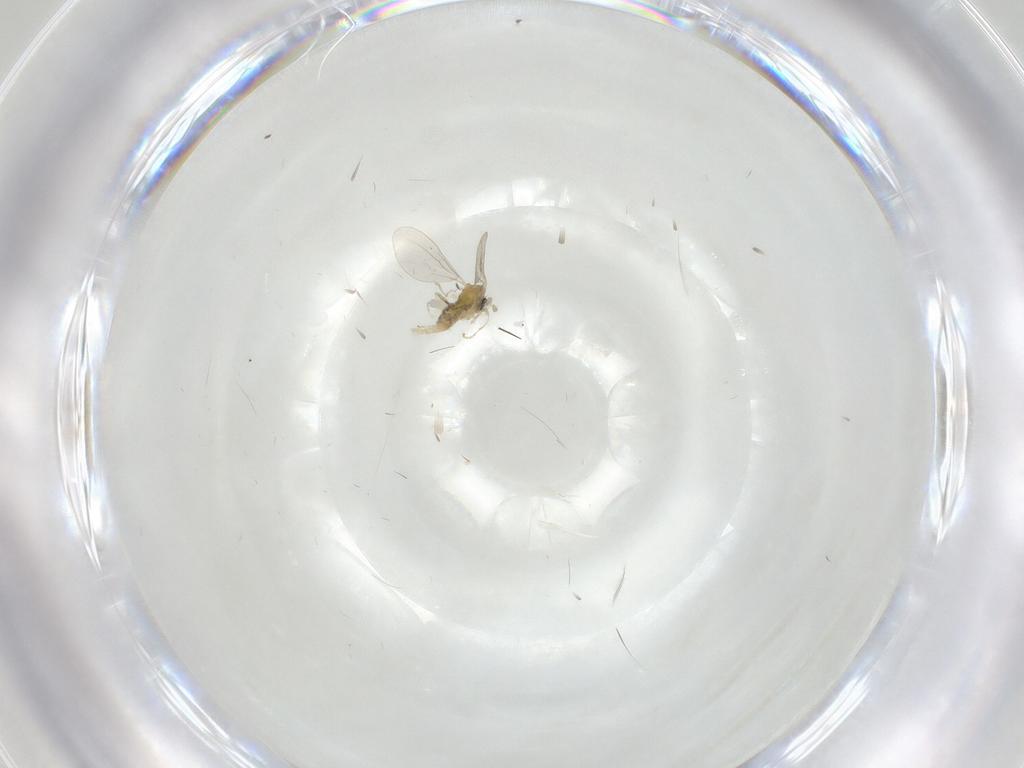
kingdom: Animalia
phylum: Arthropoda
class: Insecta
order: Diptera
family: Cecidomyiidae
